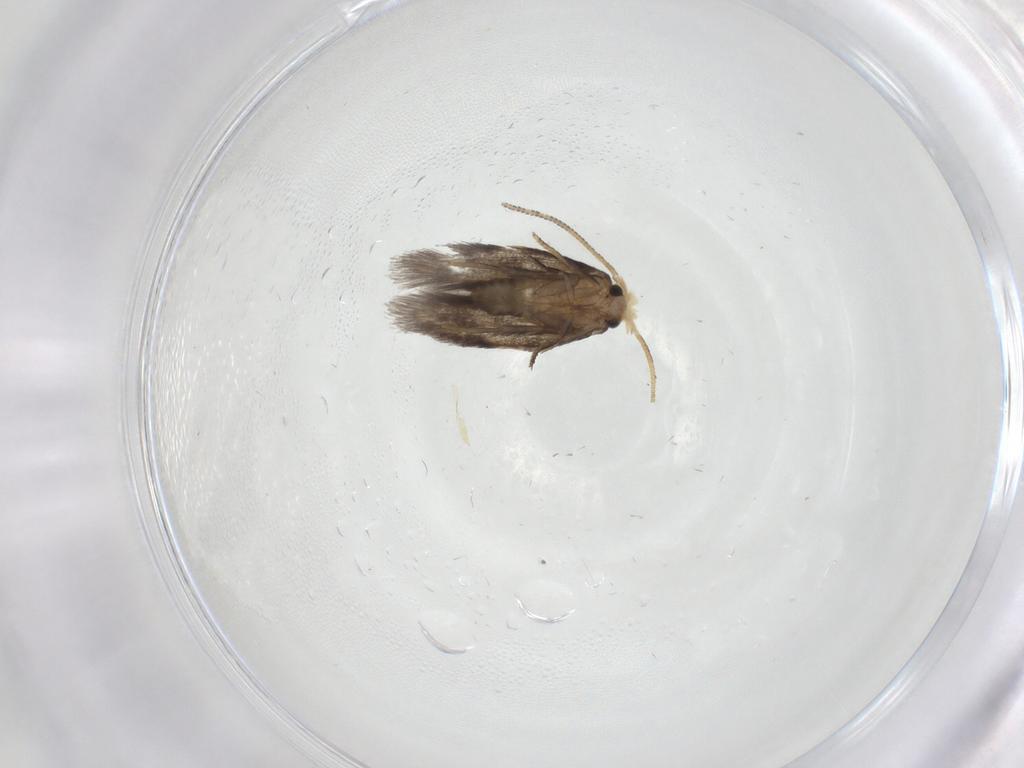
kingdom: Animalia
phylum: Arthropoda
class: Insecta
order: Lepidoptera
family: Nepticulidae
